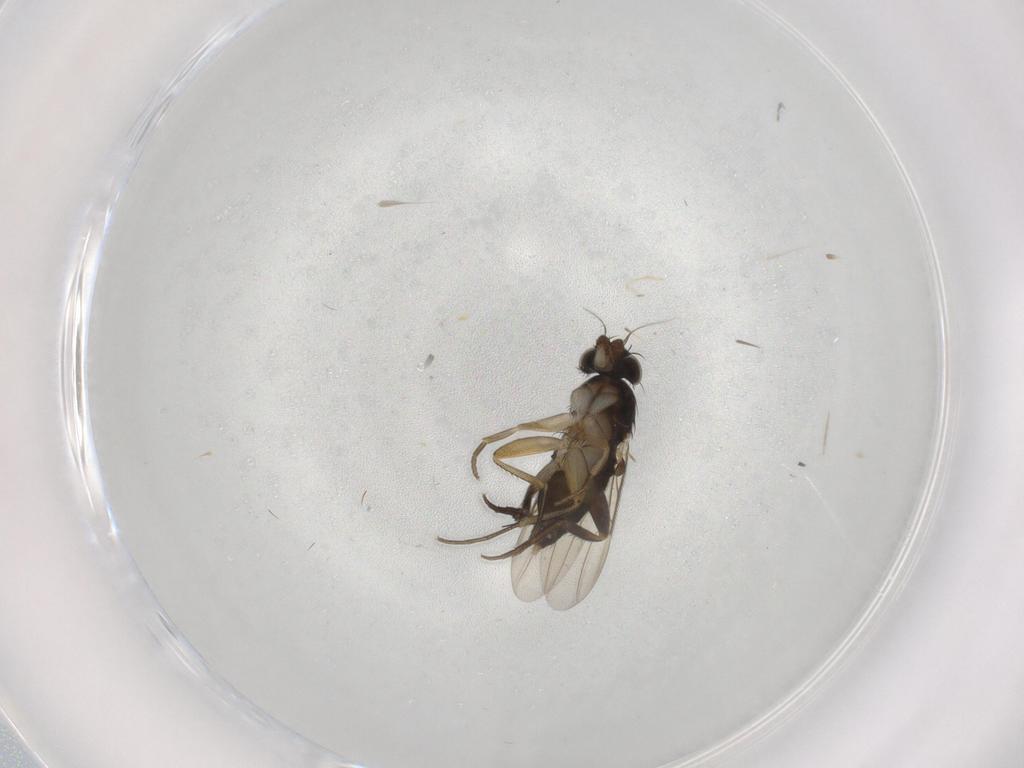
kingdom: Animalia
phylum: Arthropoda
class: Insecta
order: Diptera
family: Phoridae
